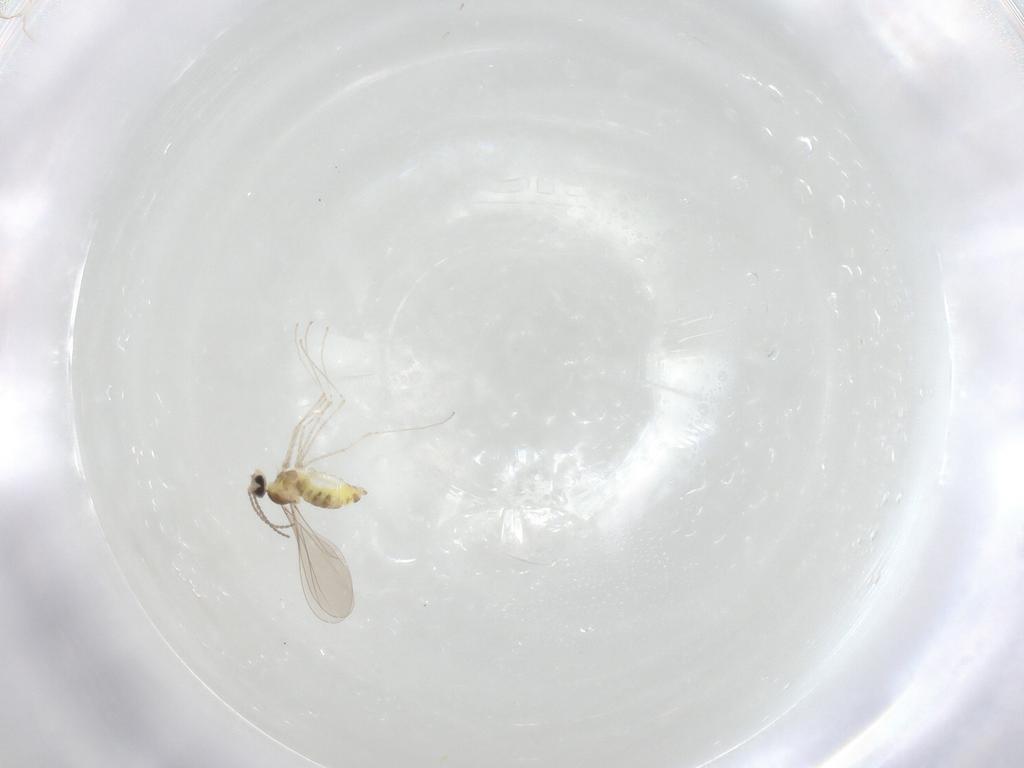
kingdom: Animalia
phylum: Arthropoda
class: Insecta
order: Diptera
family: Cecidomyiidae
